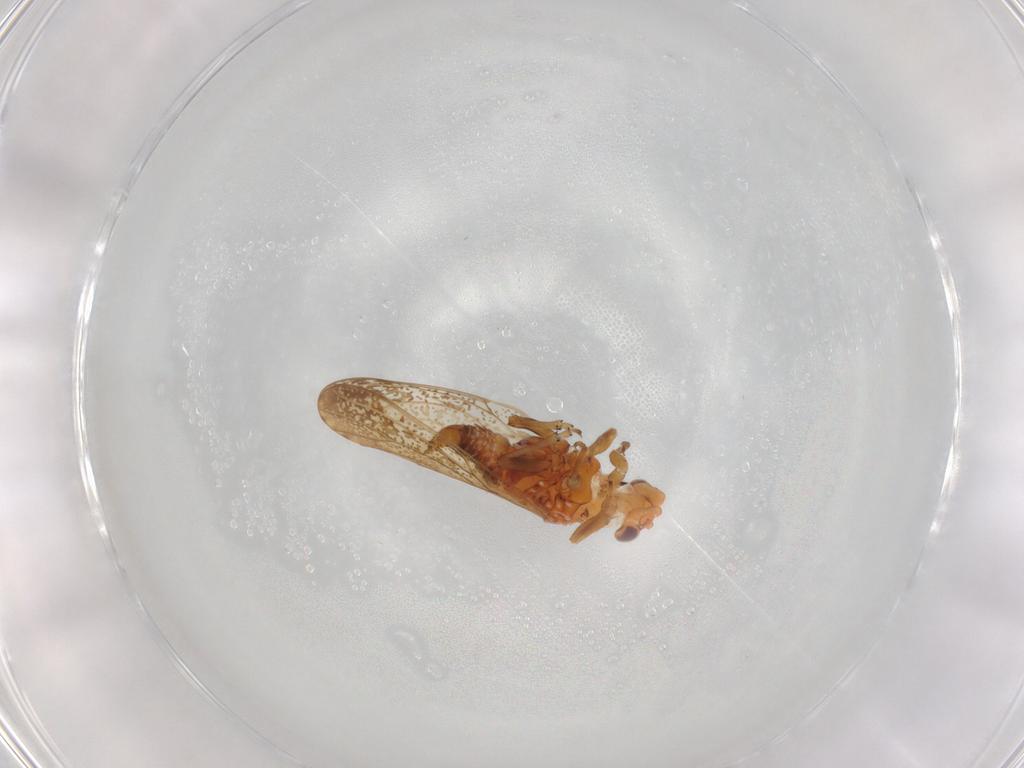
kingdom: Animalia
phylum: Arthropoda
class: Insecta
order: Hemiptera
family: Psyllidae
